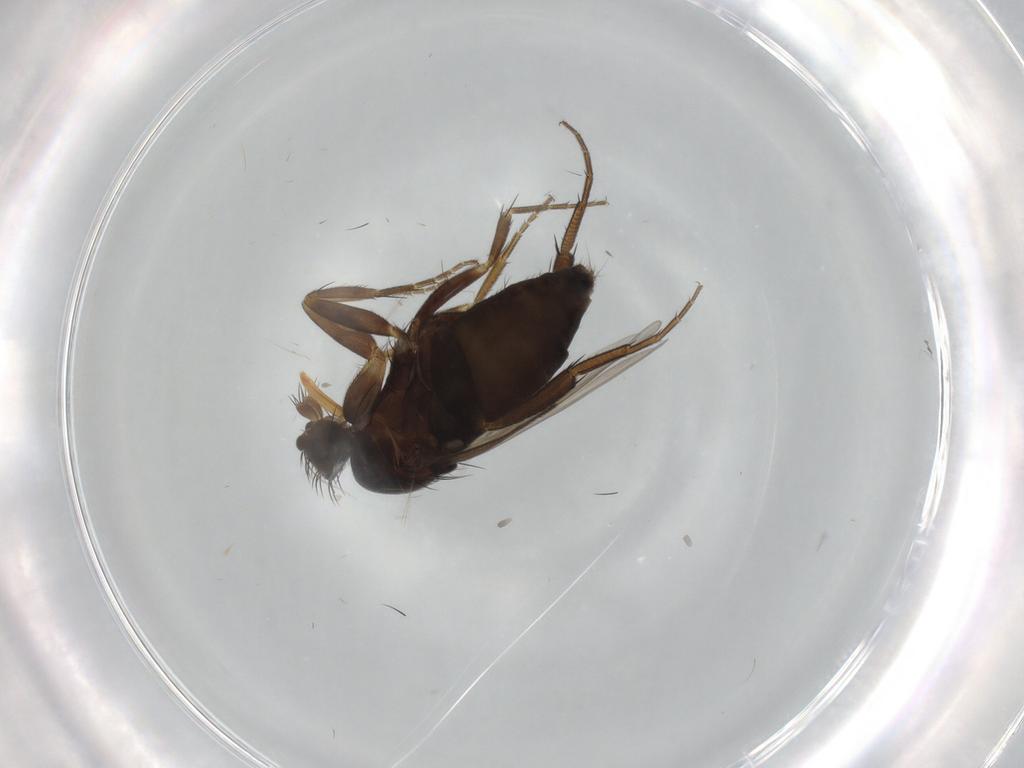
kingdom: Animalia
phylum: Arthropoda
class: Insecta
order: Diptera
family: Phoridae
